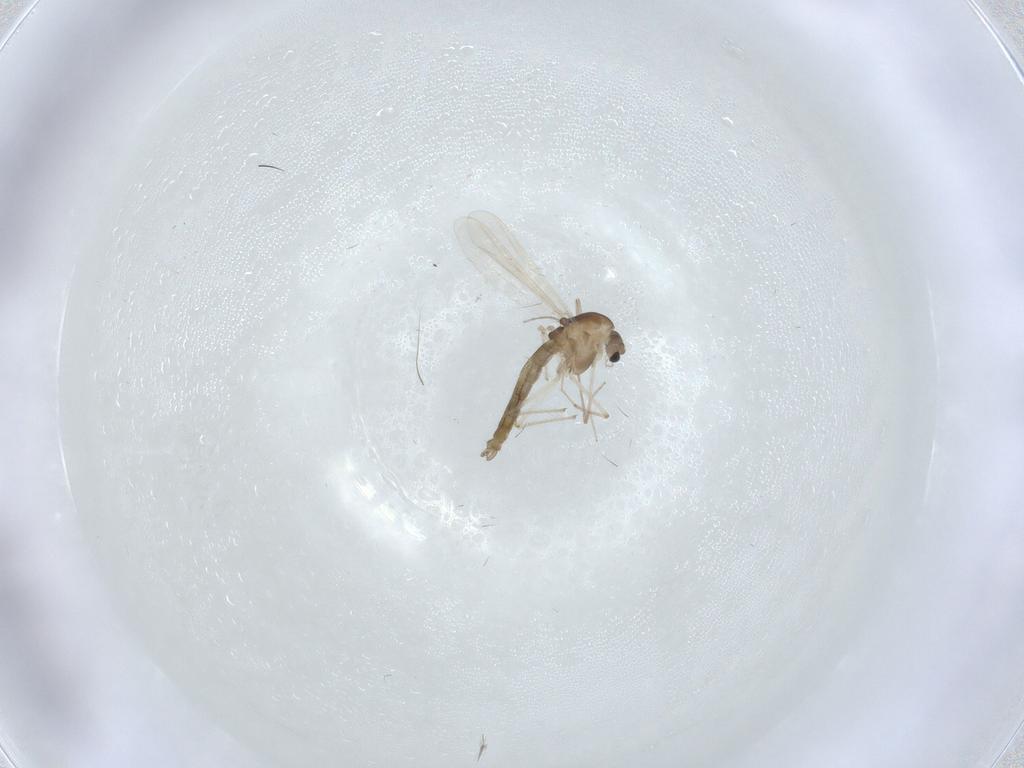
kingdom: Animalia
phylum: Arthropoda
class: Insecta
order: Diptera
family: Chironomidae
